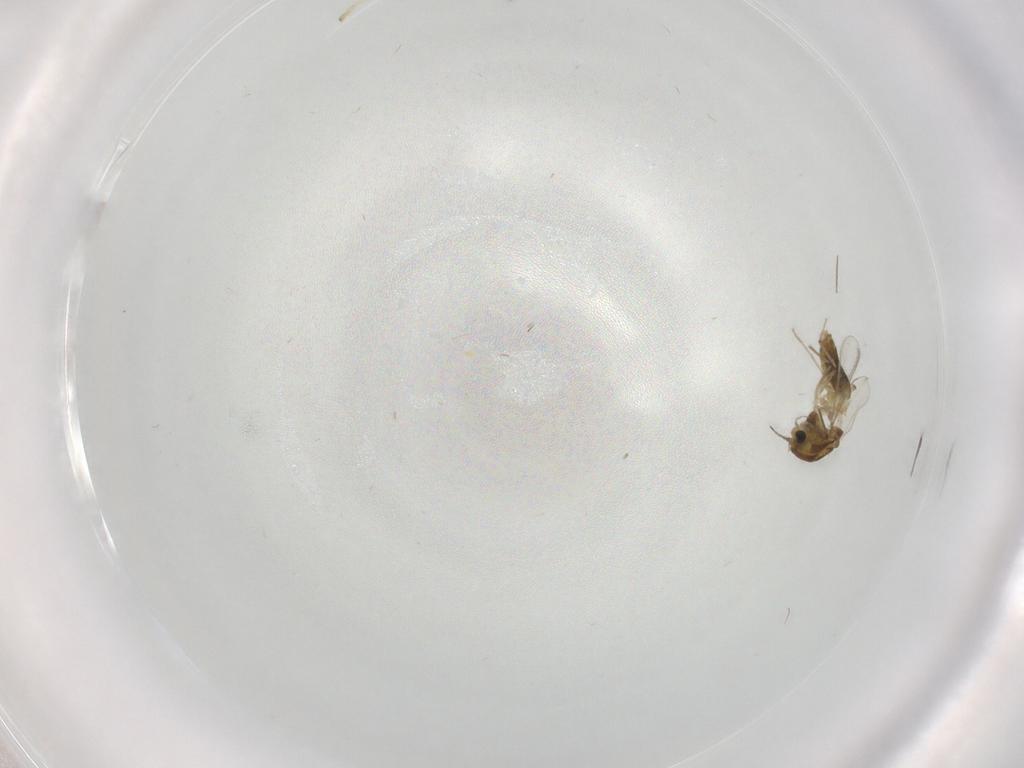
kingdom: Animalia
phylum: Arthropoda
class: Insecta
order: Diptera
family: Chironomidae
